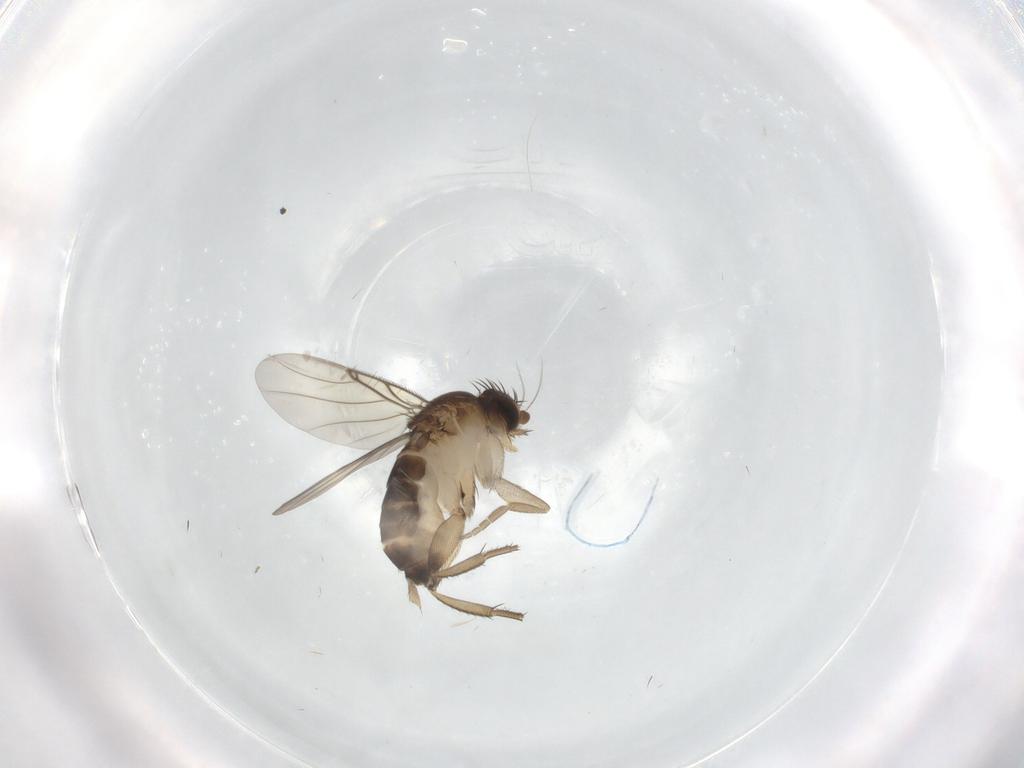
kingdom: Animalia
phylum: Arthropoda
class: Insecta
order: Diptera
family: Phoridae
